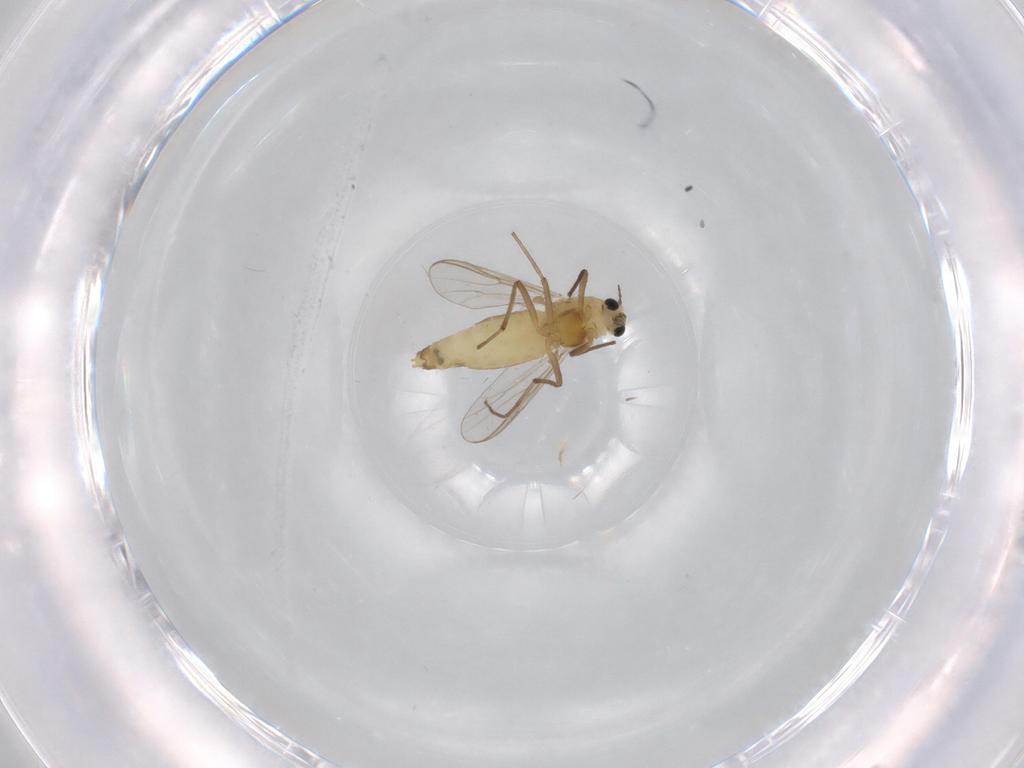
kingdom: Animalia
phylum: Arthropoda
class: Insecta
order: Diptera
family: Chironomidae
